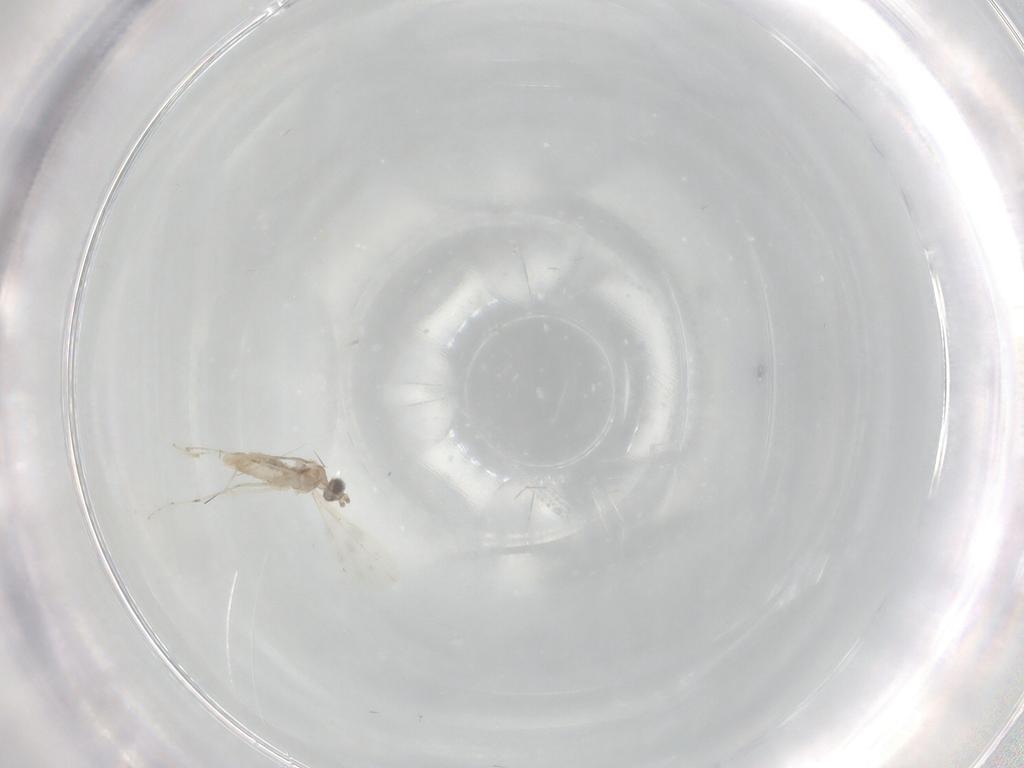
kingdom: Animalia
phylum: Arthropoda
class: Insecta
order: Diptera
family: Cecidomyiidae
